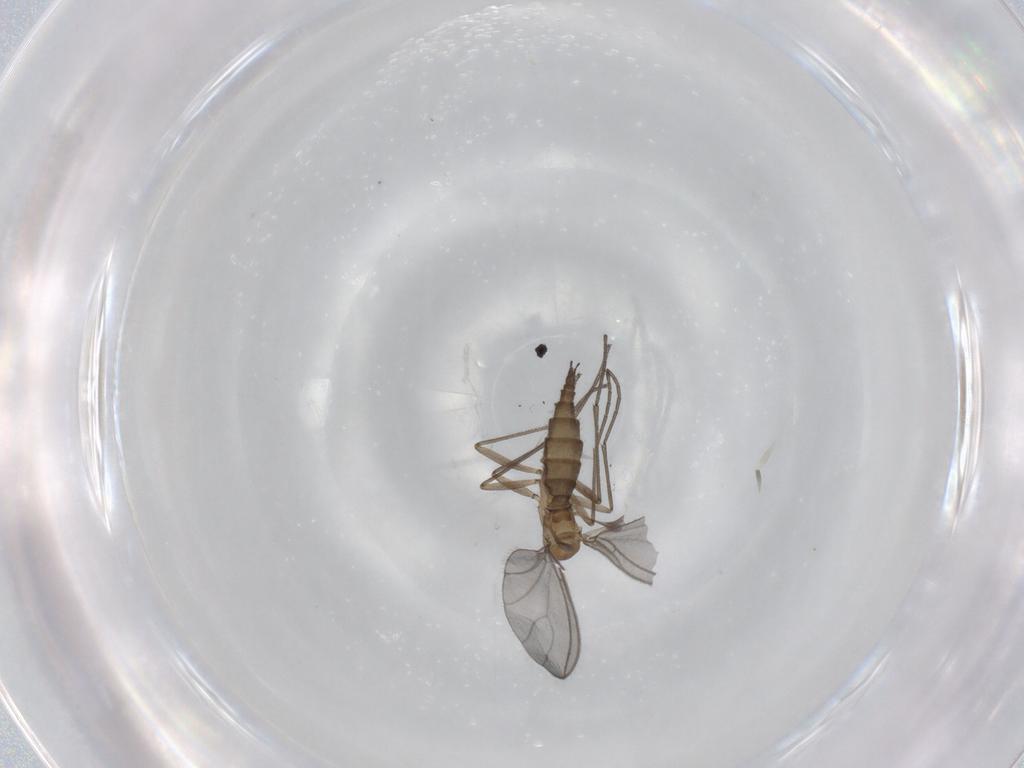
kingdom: Animalia
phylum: Arthropoda
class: Insecta
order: Diptera
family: Sciaridae
